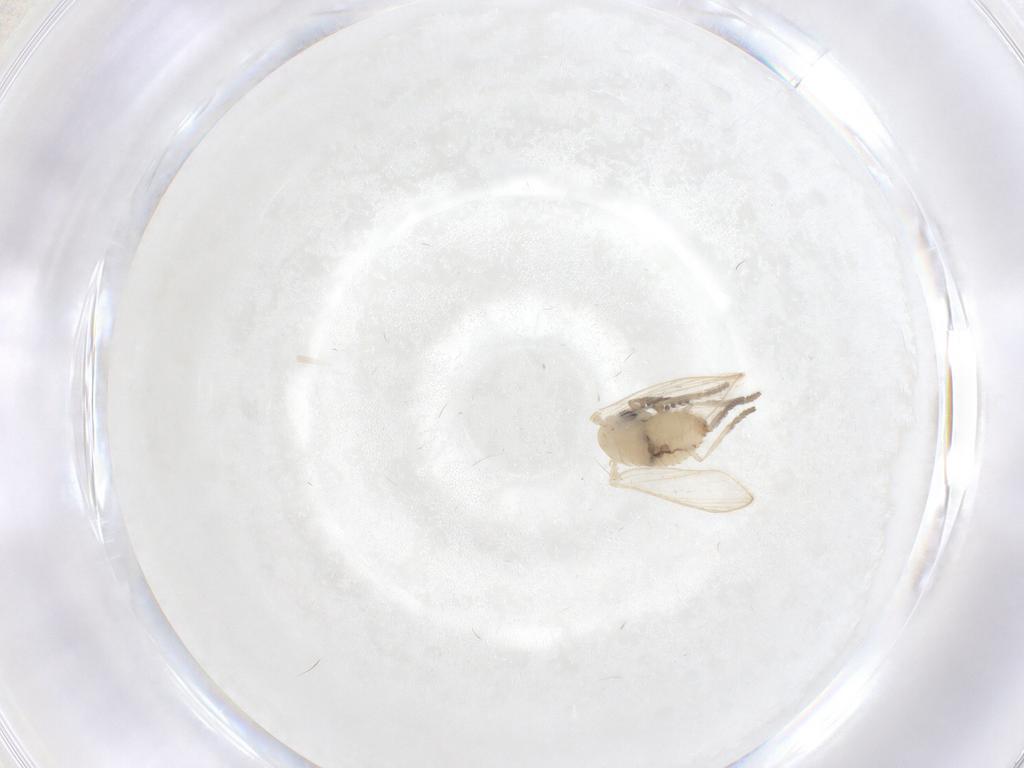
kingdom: Animalia
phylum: Arthropoda
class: Insecta
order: Diptera
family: Psychodidae
